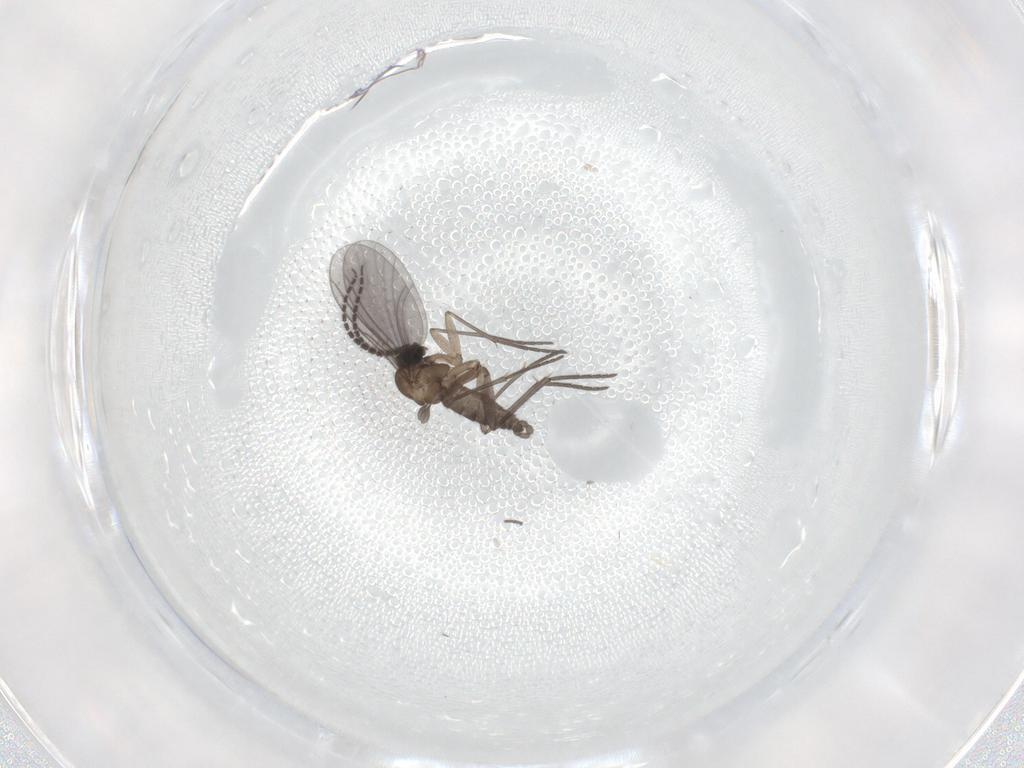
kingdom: Animalia
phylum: Arthropoda
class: Insecta
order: Diptera
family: Sciaridae
